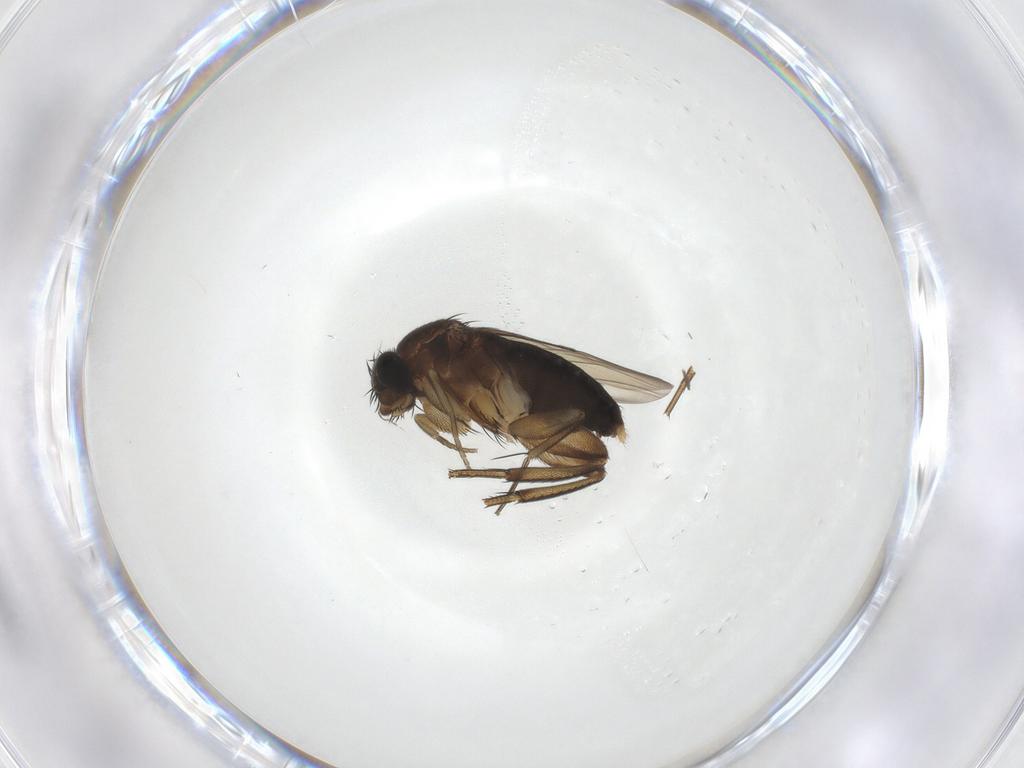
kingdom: Animalia
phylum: Arthropoda
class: Insecta
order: Diptera
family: Phoridae
